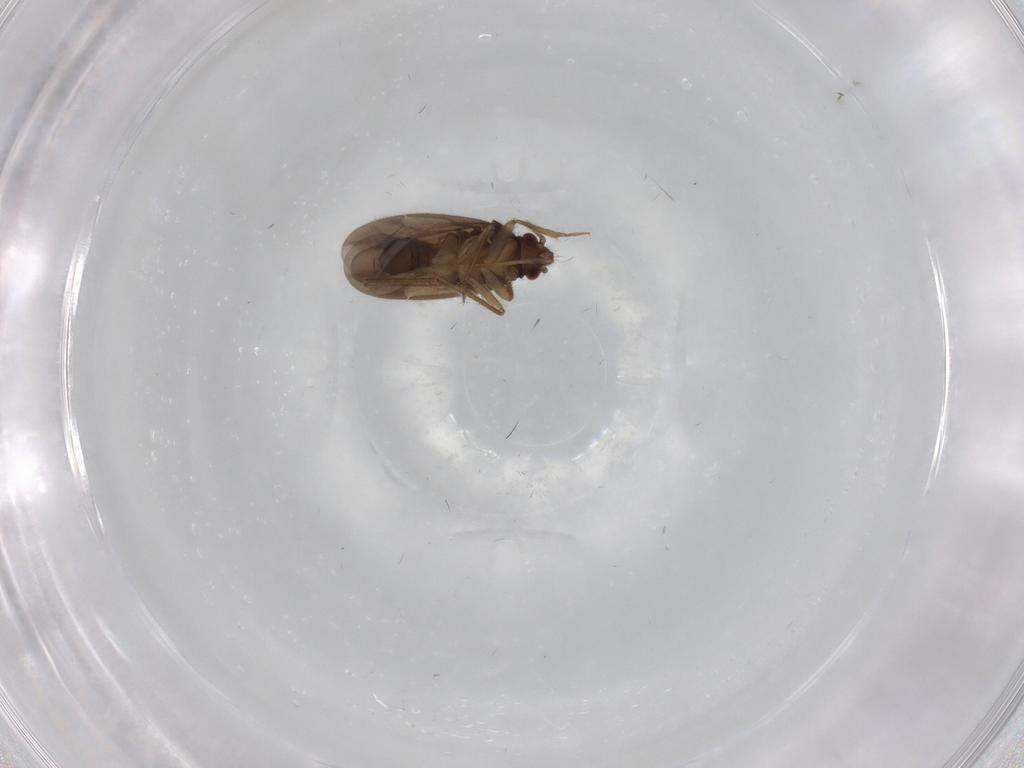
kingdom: Animalia
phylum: Arthropoda
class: Insecta
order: Hemiptera
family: Ceratocombidae
